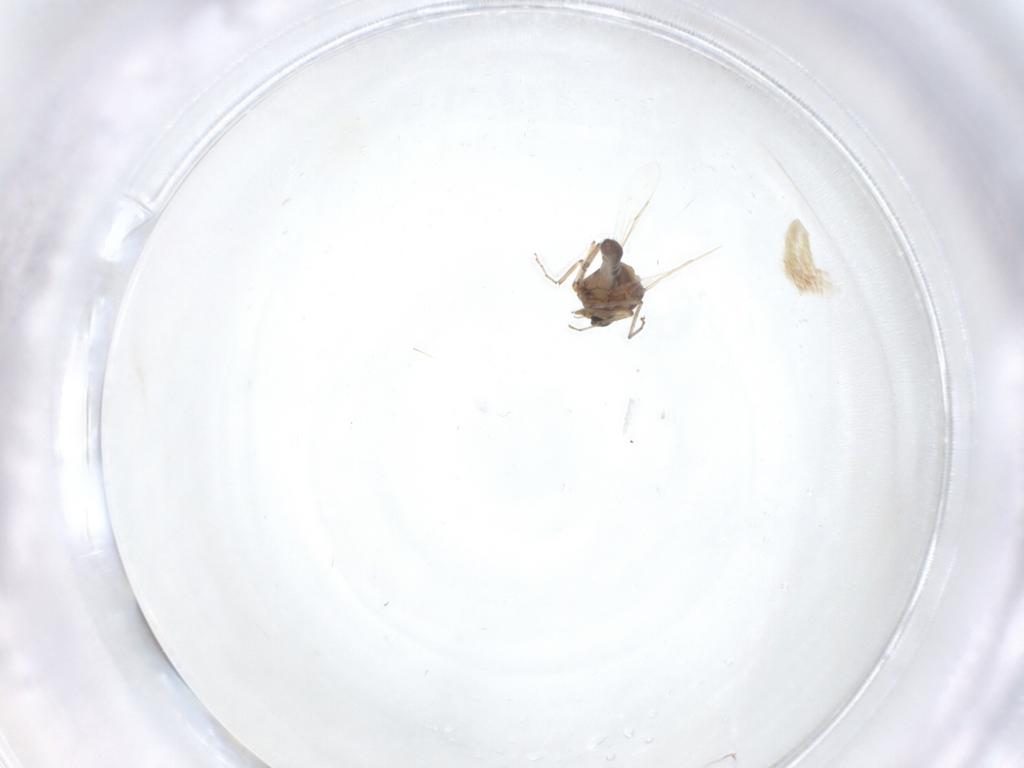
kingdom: Animalia
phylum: Arthropoda
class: Insecta
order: Diptera
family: Ceratopogonidae
